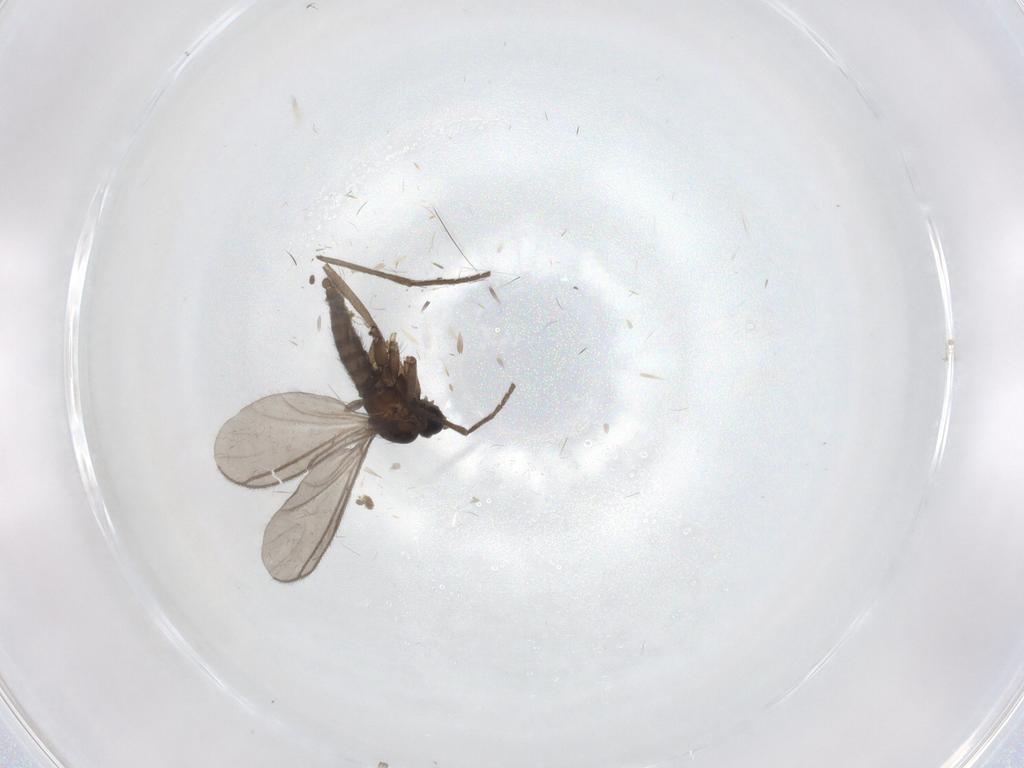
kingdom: Animalia
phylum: Arthropoda
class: Insecta
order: Diptera
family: Sciaridae
